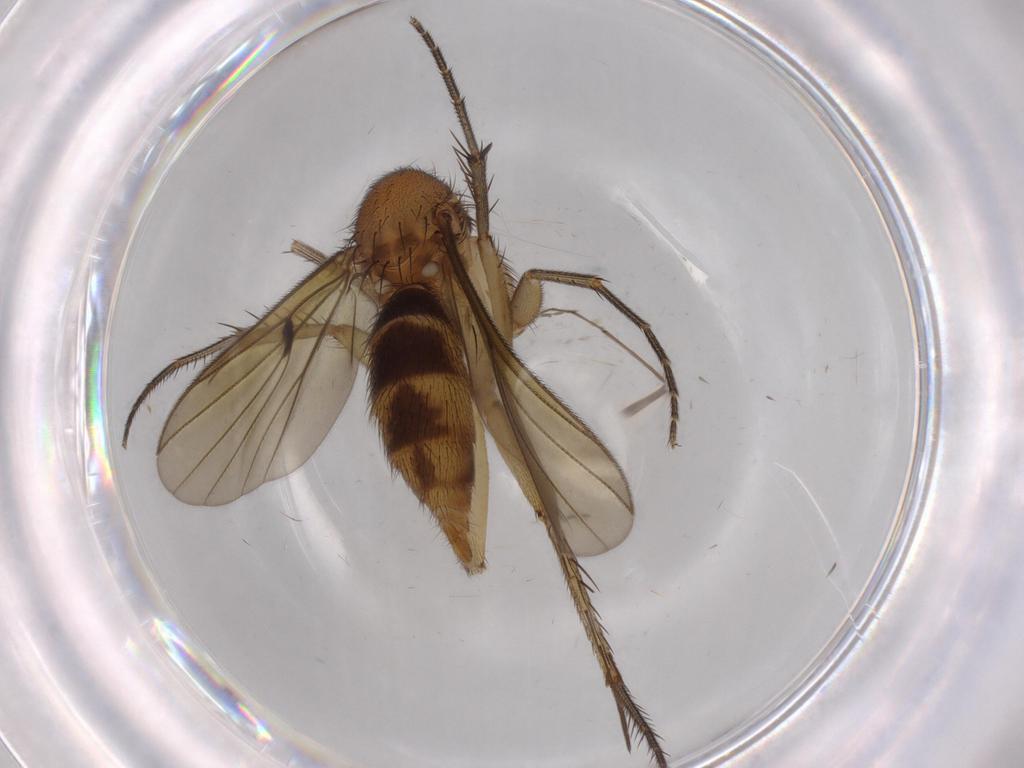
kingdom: Animalia
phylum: Arthropoda
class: Insecta
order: Diptera
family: Mycetophilidae
